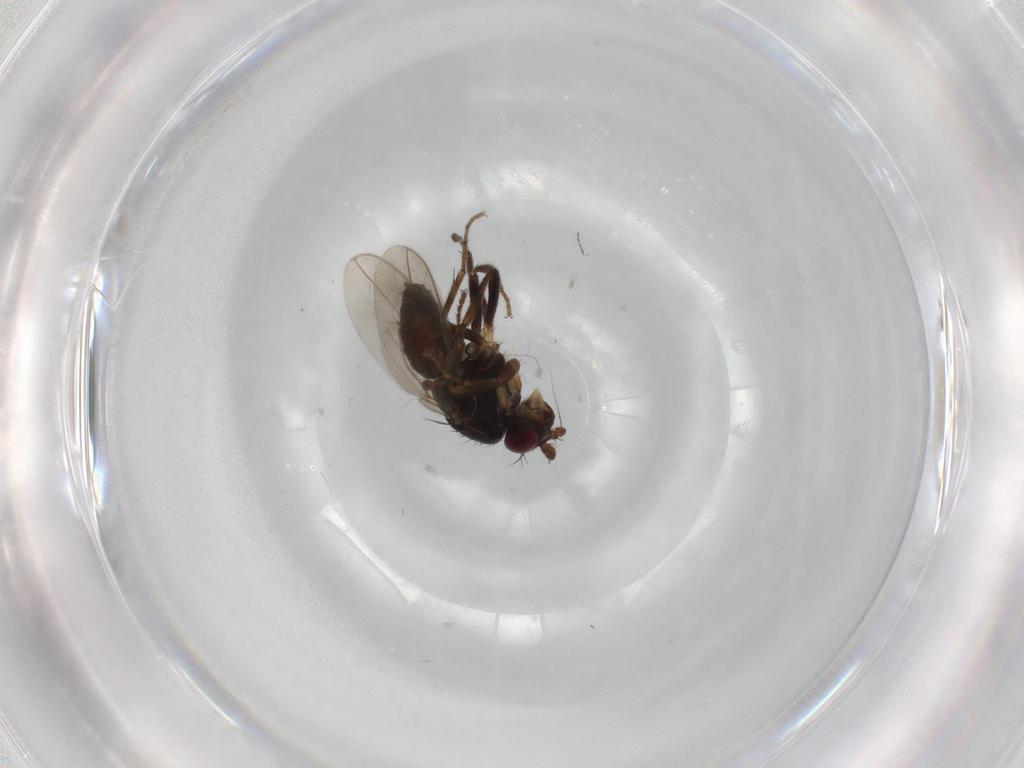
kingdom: Animalia
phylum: Arthropoda
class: Insecta
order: Diptera
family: Sphaeroceridae
